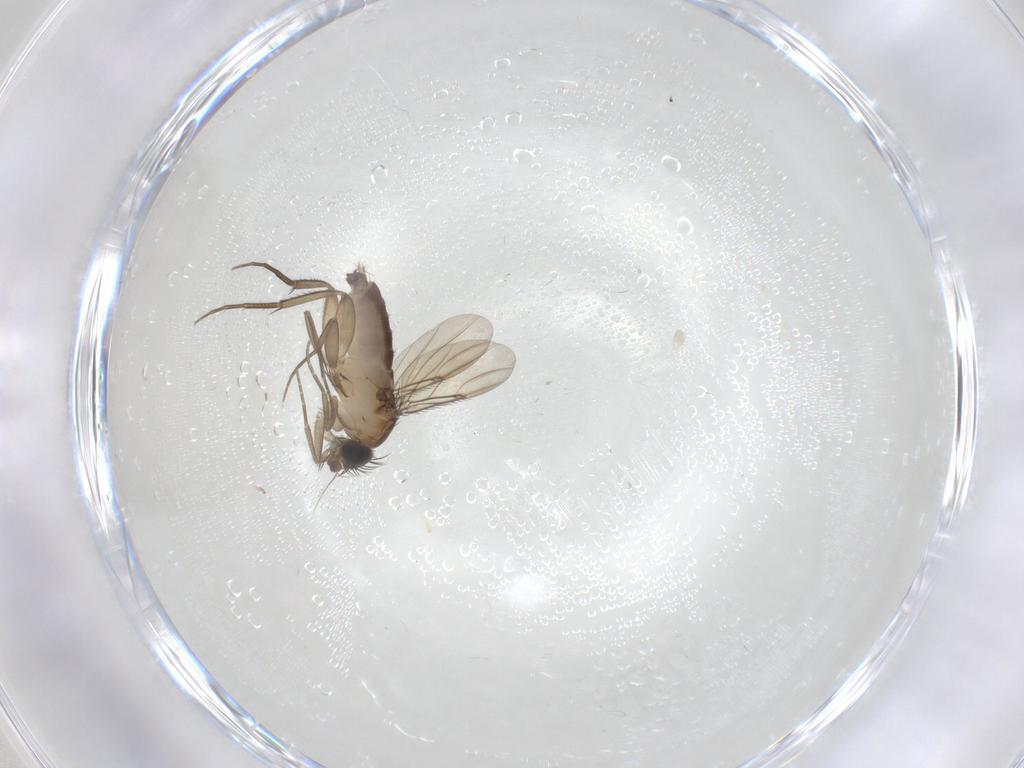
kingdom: Animalia
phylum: Arthropoda
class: Insecta
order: Diptera
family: Phoridae
